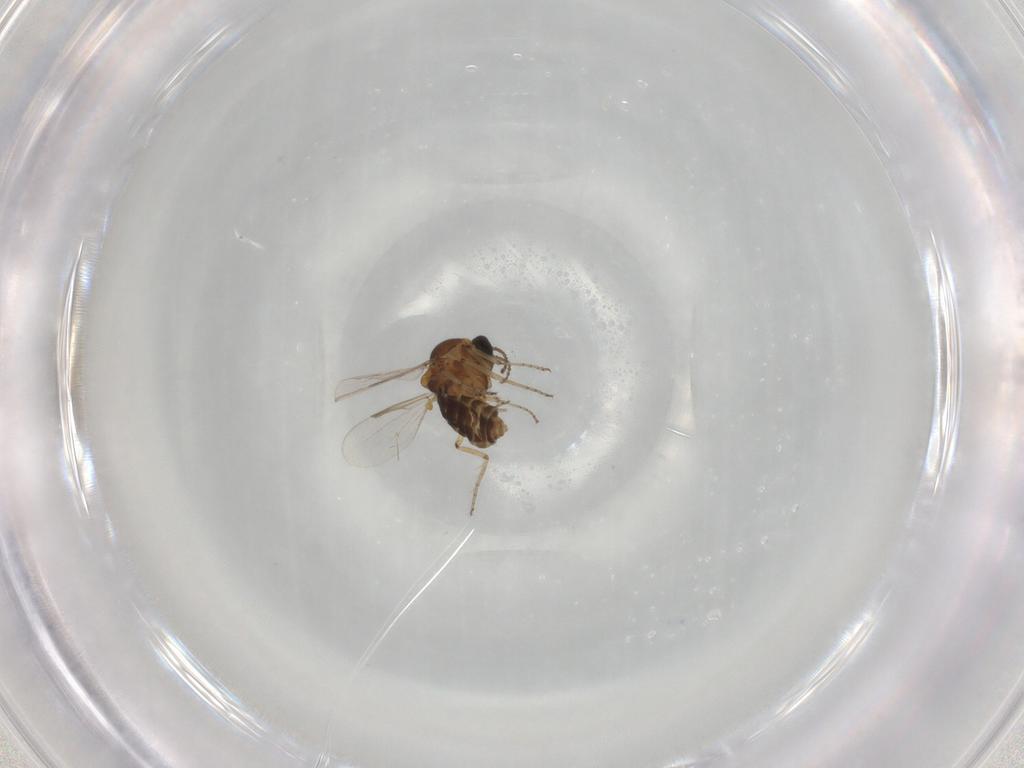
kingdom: Animalia
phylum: Arthropoda
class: Insecta
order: Diptera
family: Ceratopogonidae
